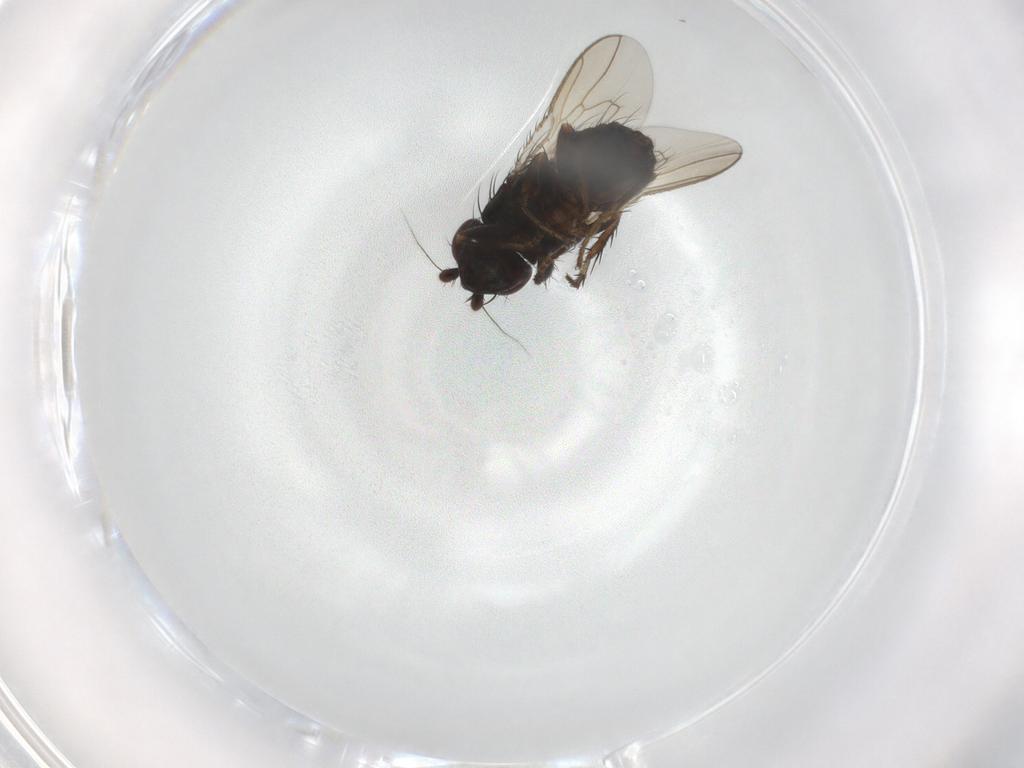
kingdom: Animalia
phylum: Arthropoda
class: Insecta
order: Diptera
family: Sphaeroceridae
